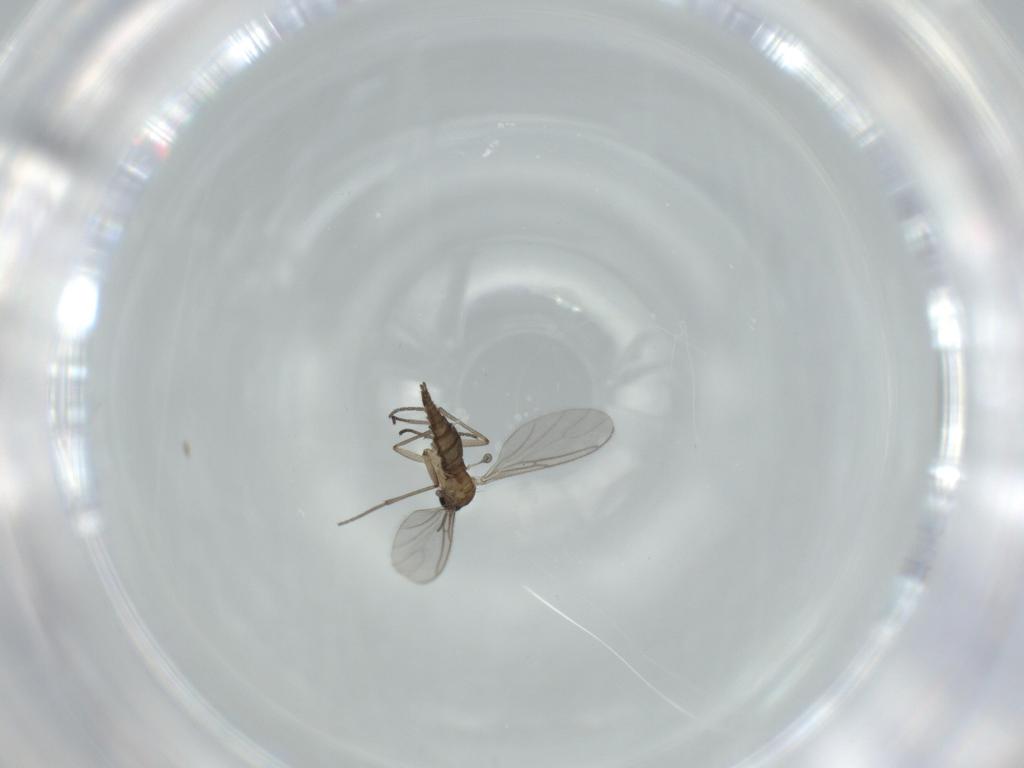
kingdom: Animalia
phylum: Arthropoda
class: Insecta
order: Diptera
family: Sciaridae
